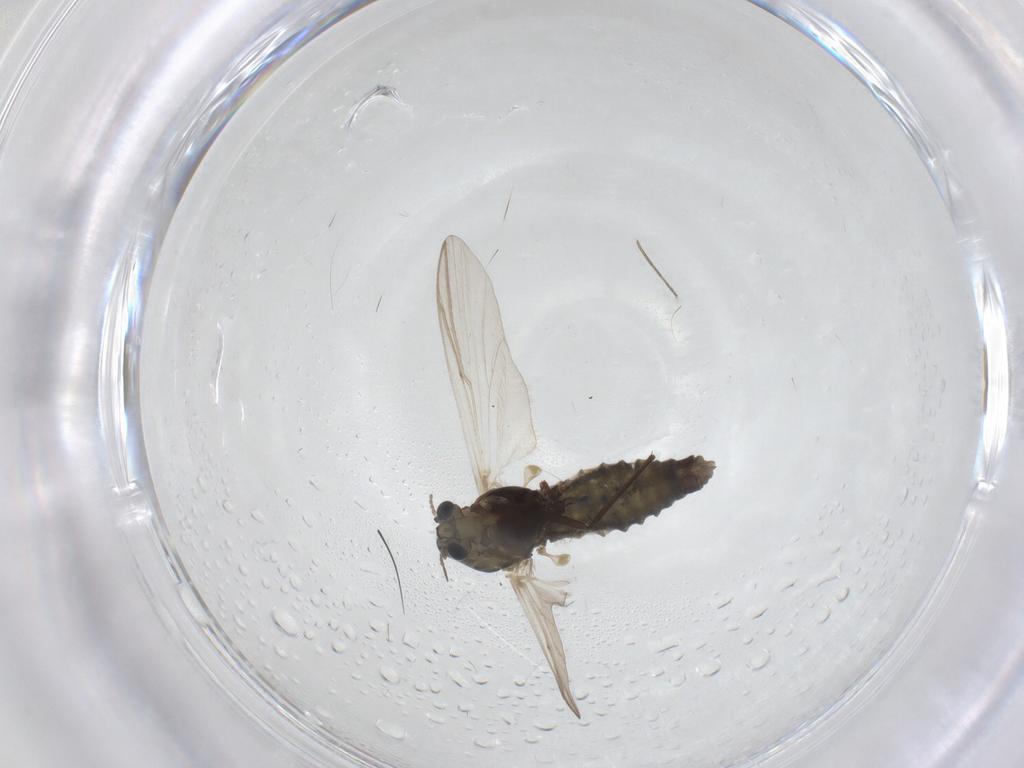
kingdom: Animalia
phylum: Arthropoda
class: Insecta
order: Diptera
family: Chironomidae
